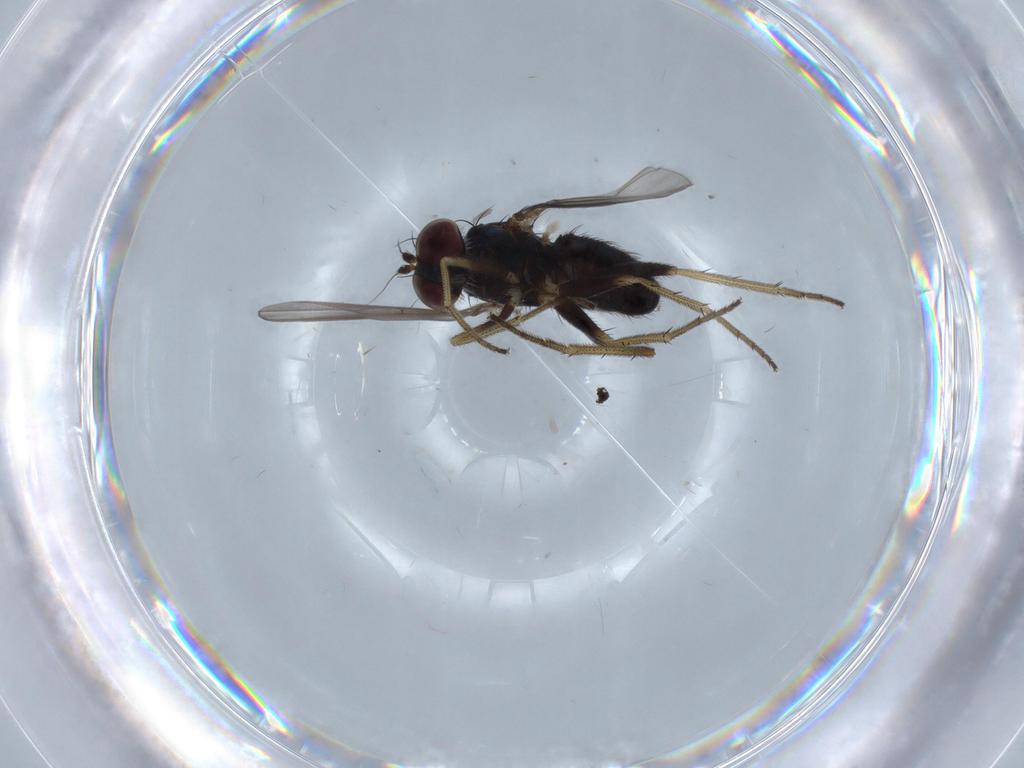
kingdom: Animalia
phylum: Arthropoda
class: Insecta
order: Diptera
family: Dolichopodidae
